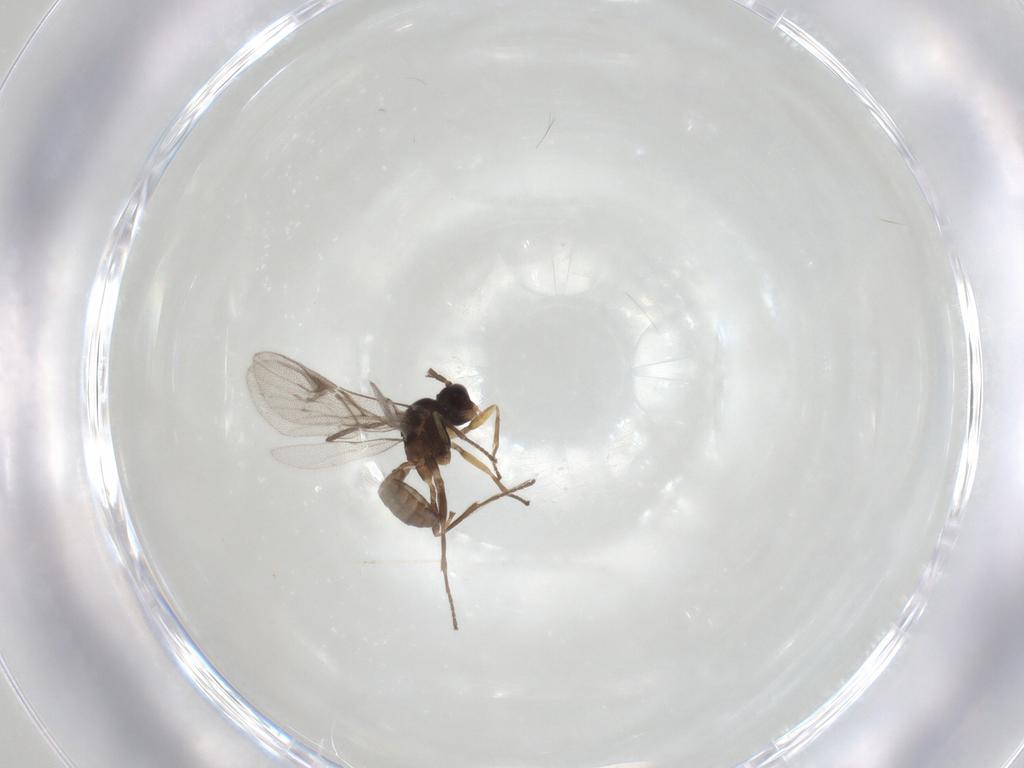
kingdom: Animalia
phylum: Arthropoda
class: Insecta
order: Hymenoptera
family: Braconidae
